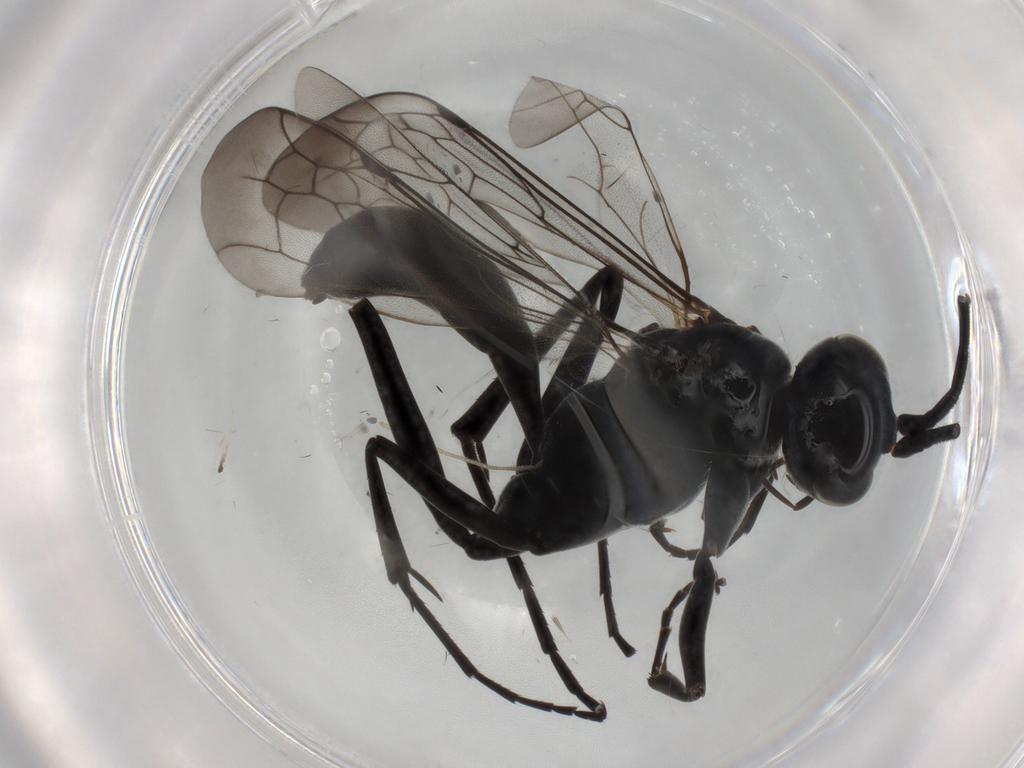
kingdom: Animalia
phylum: Arthropoda
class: Insecta
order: Hymenoptera
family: Pompilidae
